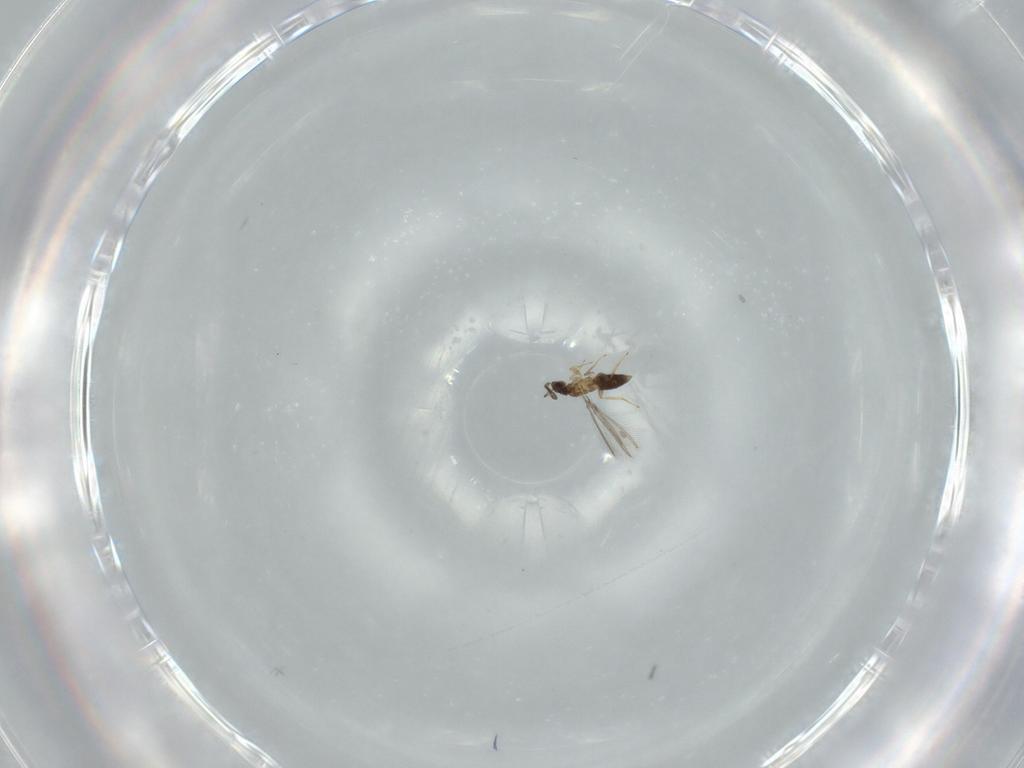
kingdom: Animalia
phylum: Arthropoda
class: Insecta
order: Hymenoptera
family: Mymaridae
